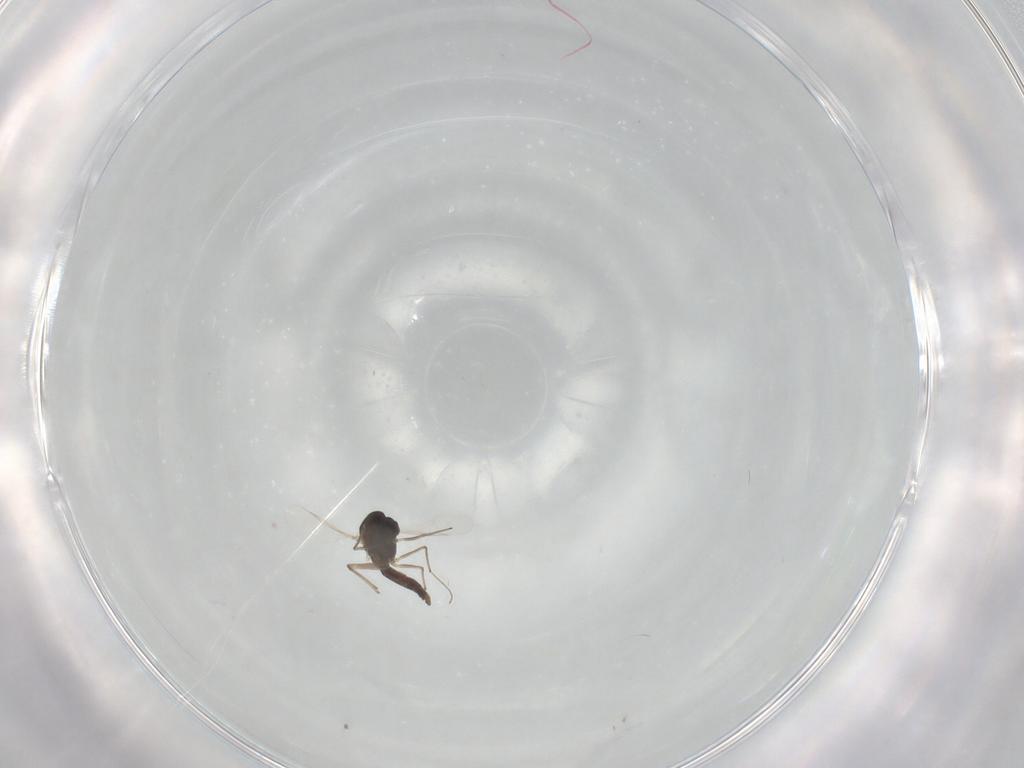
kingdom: Animalia
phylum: Arthropoda
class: Insecta
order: Diptera
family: Chironomidae
